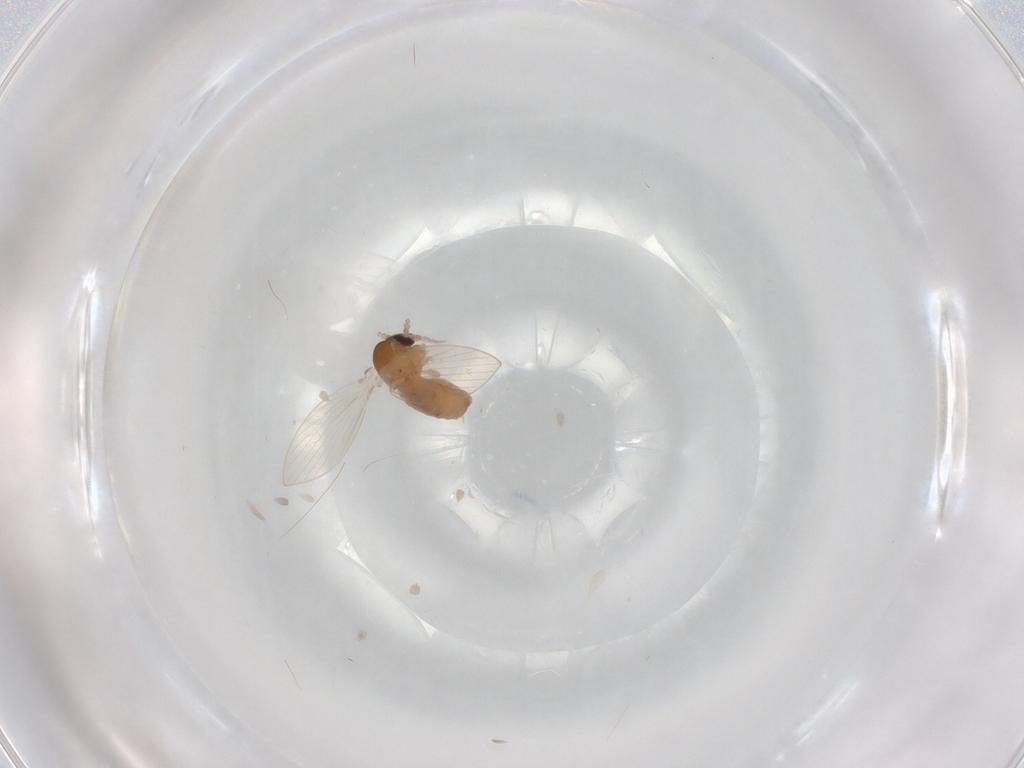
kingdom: Animalia
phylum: Arthropoda
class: Insecta
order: Diptera
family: Psychodidae
